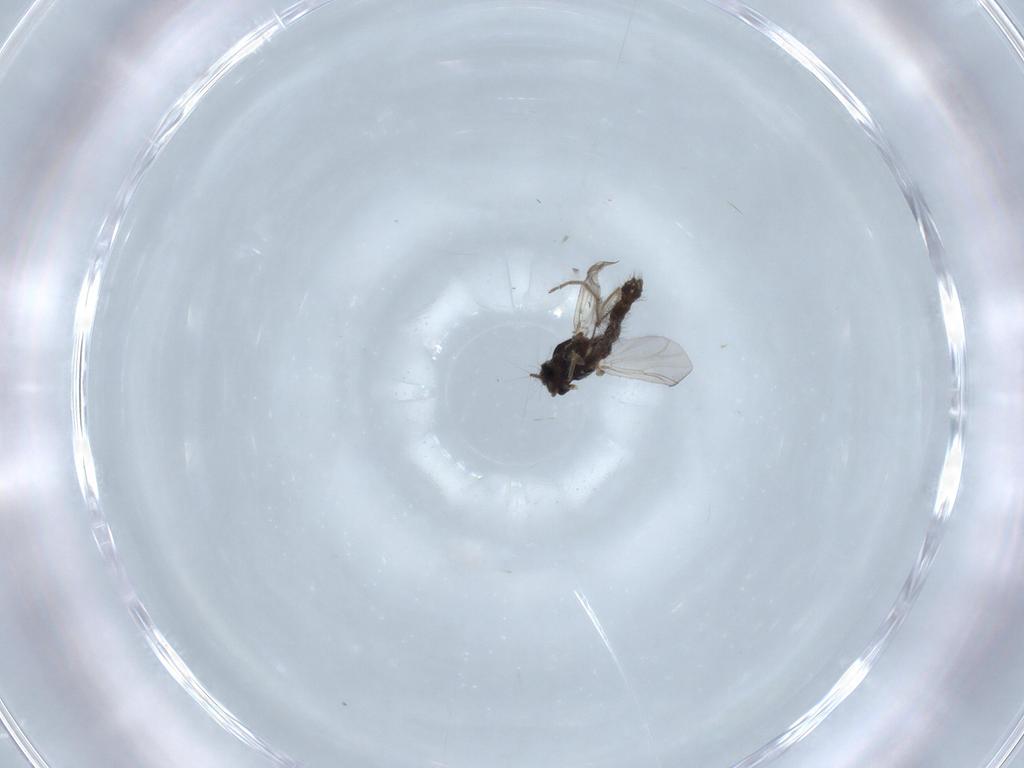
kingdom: Animalia
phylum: Arthropoda
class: Insecta
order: Diptera
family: Chironomidae
